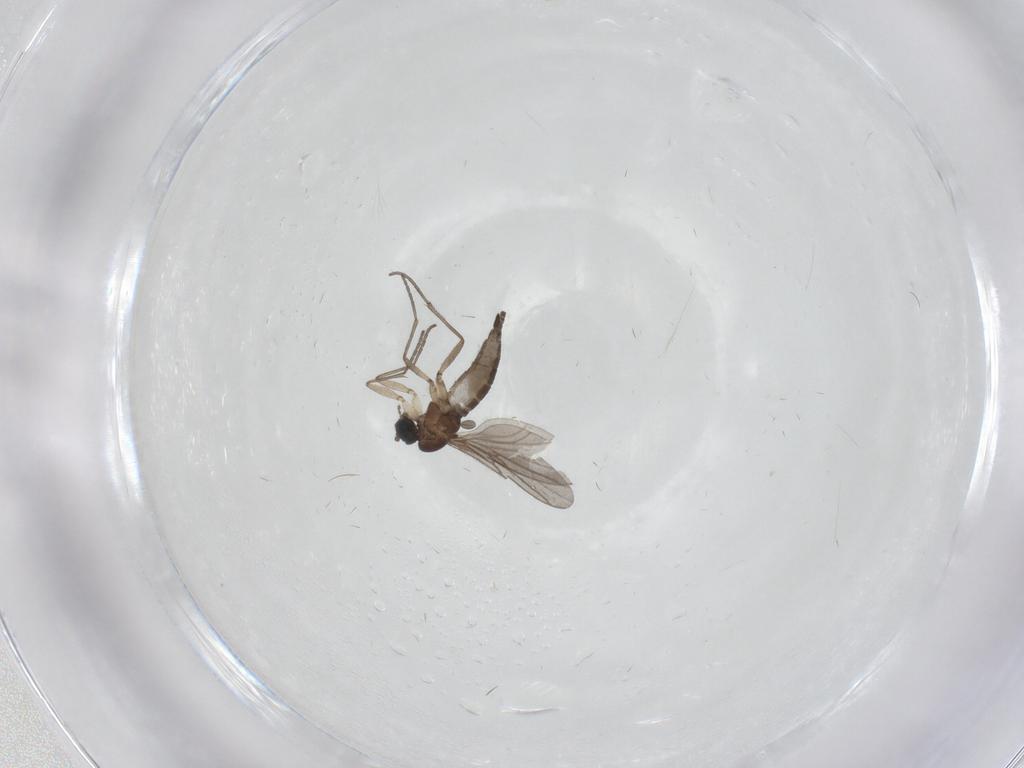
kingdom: Animalia
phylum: Arthropoda
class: Insecta
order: Diptera
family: Sciaridae
